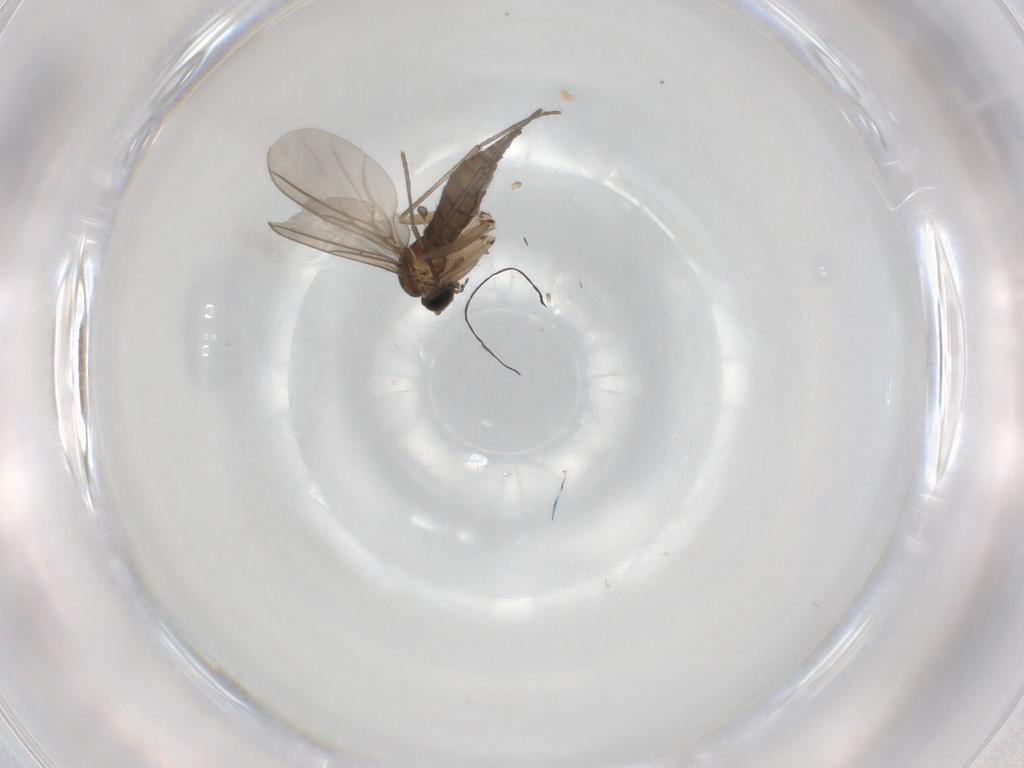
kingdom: Animalia
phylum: Arthropoda
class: Insecta
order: Diptera
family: Sciaridae
